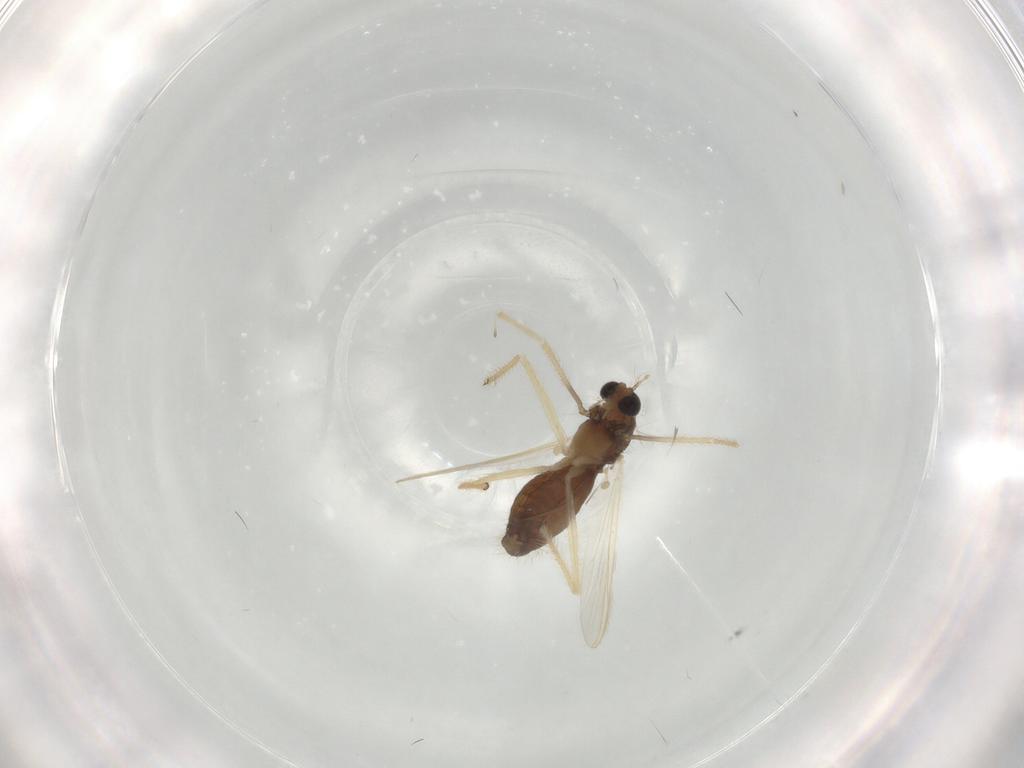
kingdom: Animalia
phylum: Arthropoda
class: Insecta
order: Diptera
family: Chironomidae
